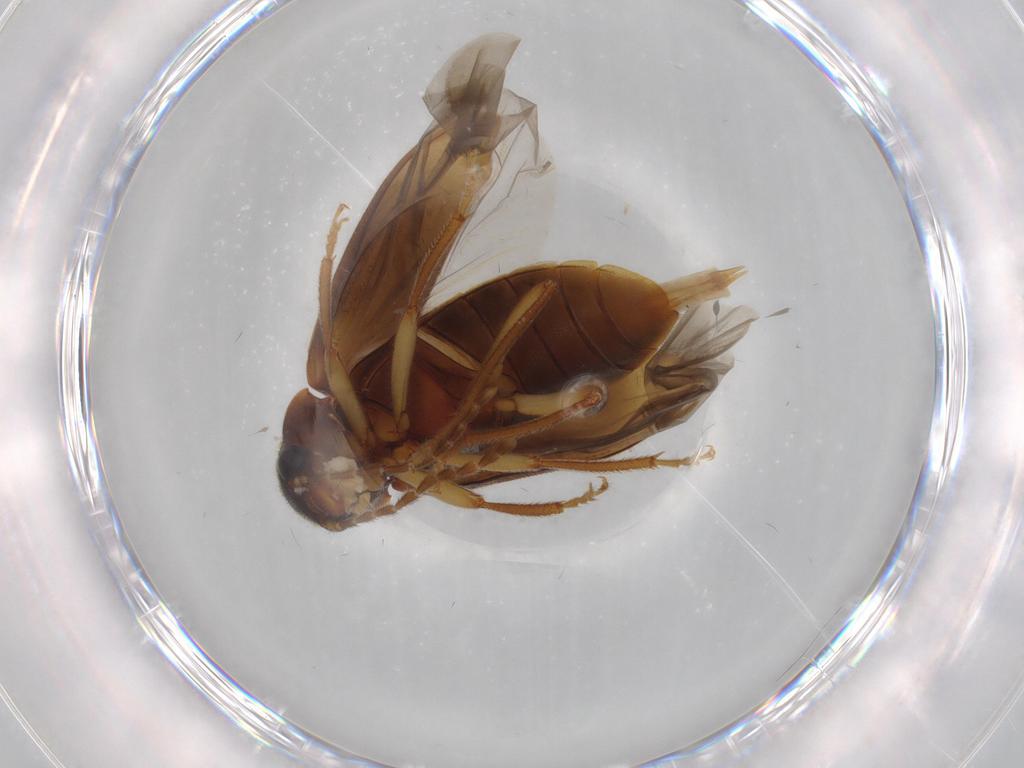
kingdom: Animalia
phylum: Arthropoda
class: Insecta
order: Coleoptera
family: Ptilodactylidae
